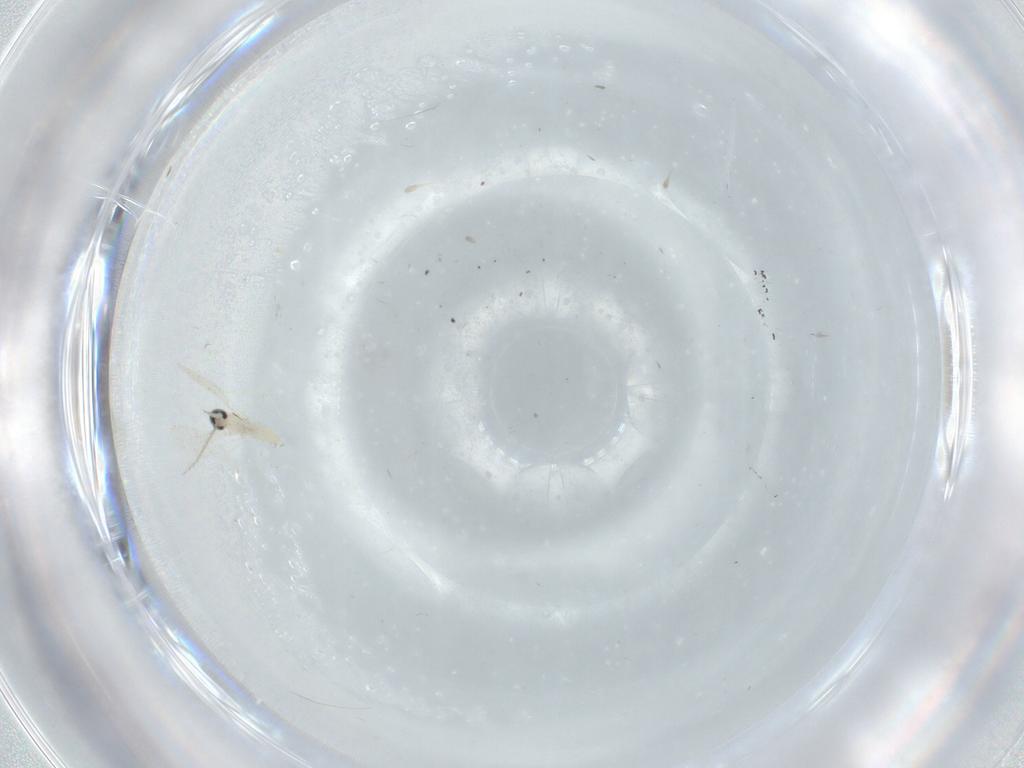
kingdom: Animalia
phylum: Arthropoda
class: Insecta
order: Diptera
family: Cecidomyiidae
